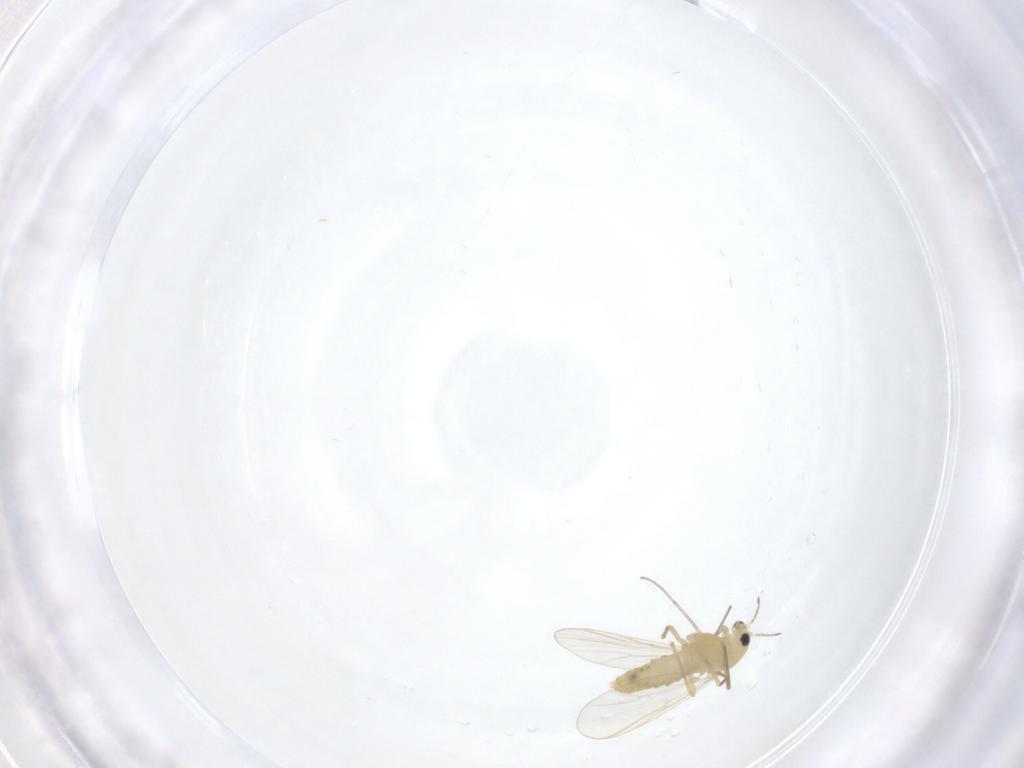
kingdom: Animalia
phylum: Arthropoda
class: Insecta
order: Diptera
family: Chironomidae
